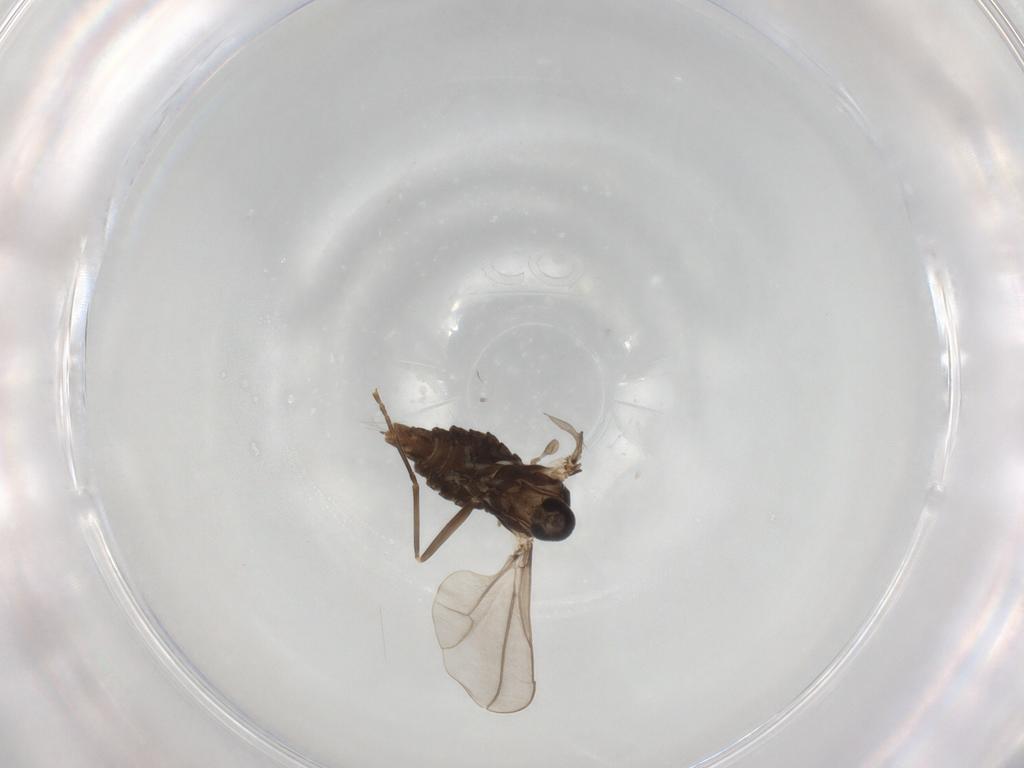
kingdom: Animalia
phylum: Arthropoda
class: Insecta
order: Diptera
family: Cecidomyiidae
